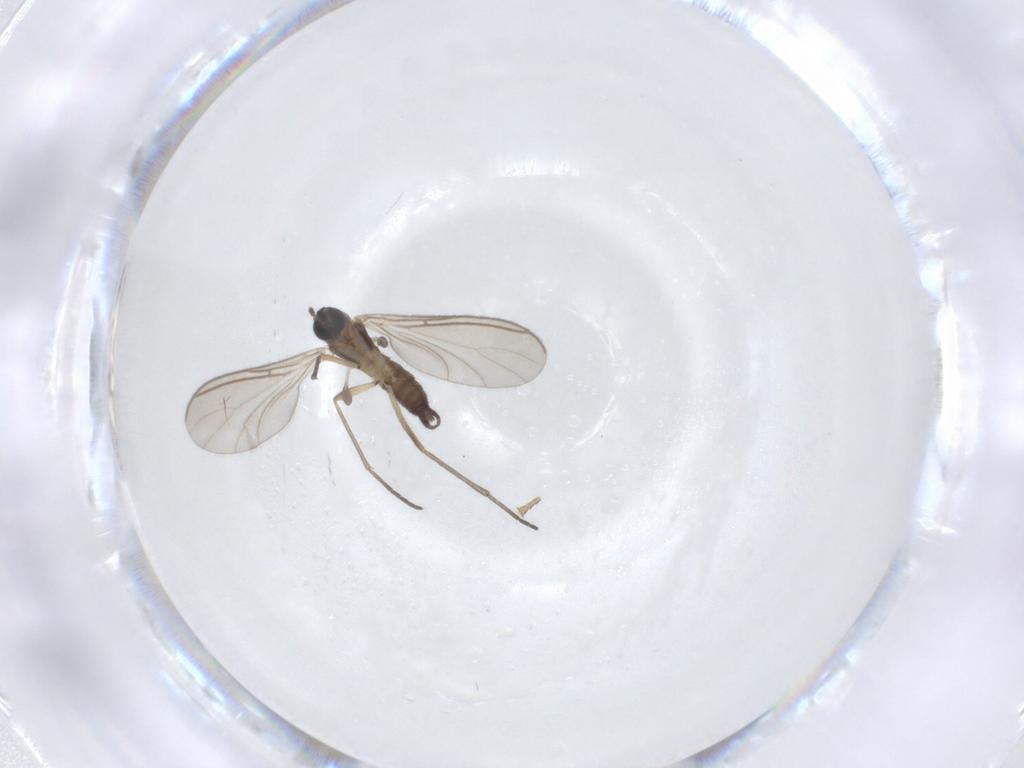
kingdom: Animalia
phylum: Arthropoda
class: Insecta
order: Diptera
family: Sciaridae
